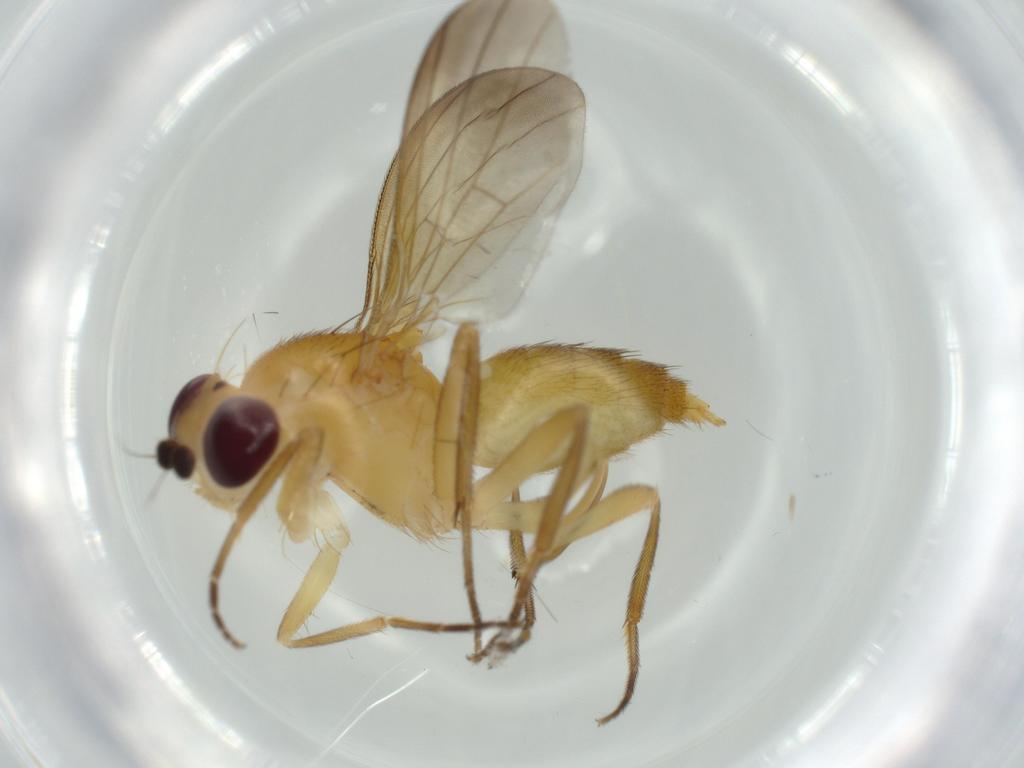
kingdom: Animalia
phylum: Arthropoda
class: Insecta
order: Diptera
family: Clusiidae
